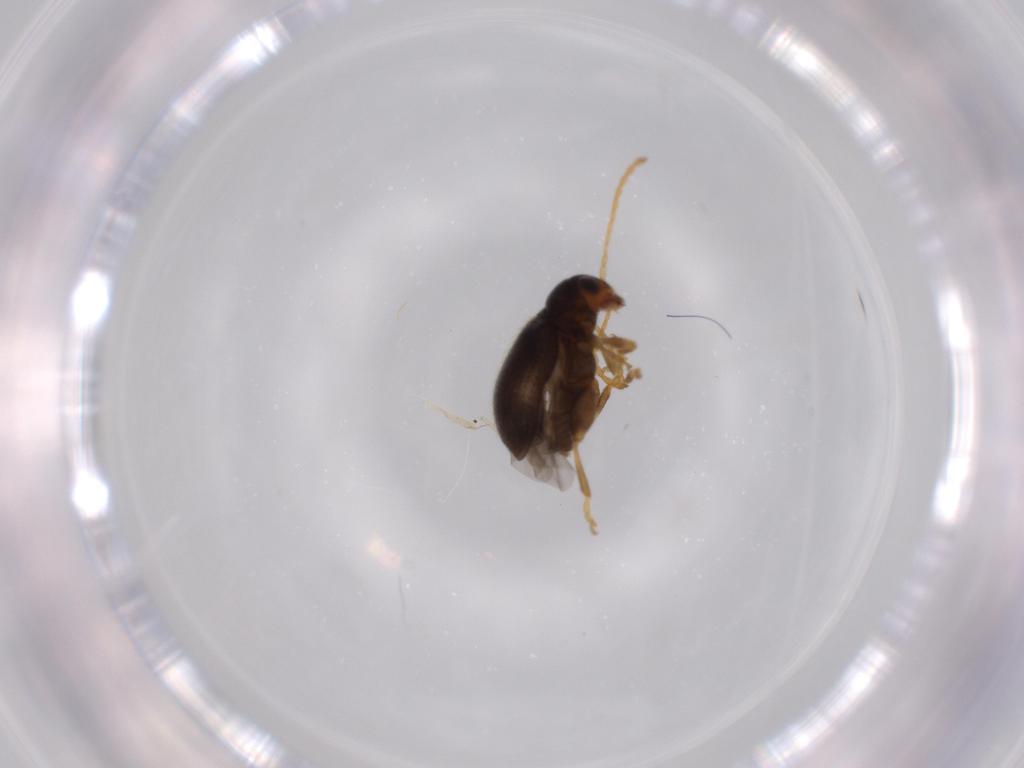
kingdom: Animalia
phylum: Arthropoda
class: Insecta
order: Coleoptera
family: Chrysomelidae
